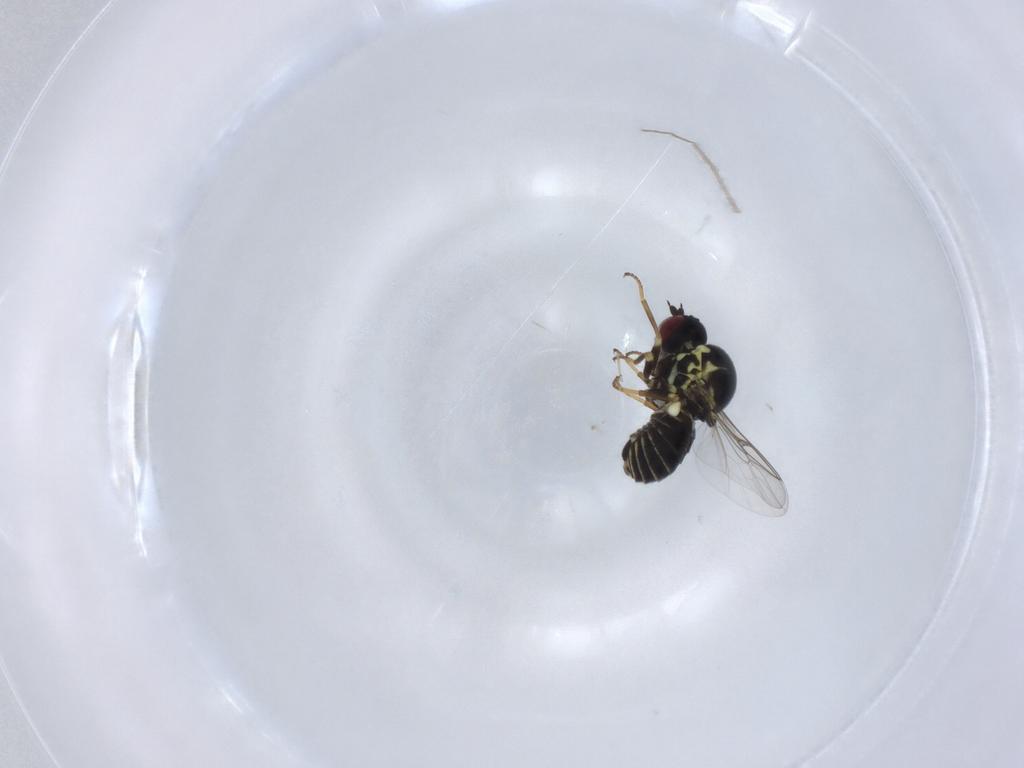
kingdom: Animalia
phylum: Arthropoda
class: Insecta
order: Diptera
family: Mythicomyiidae
